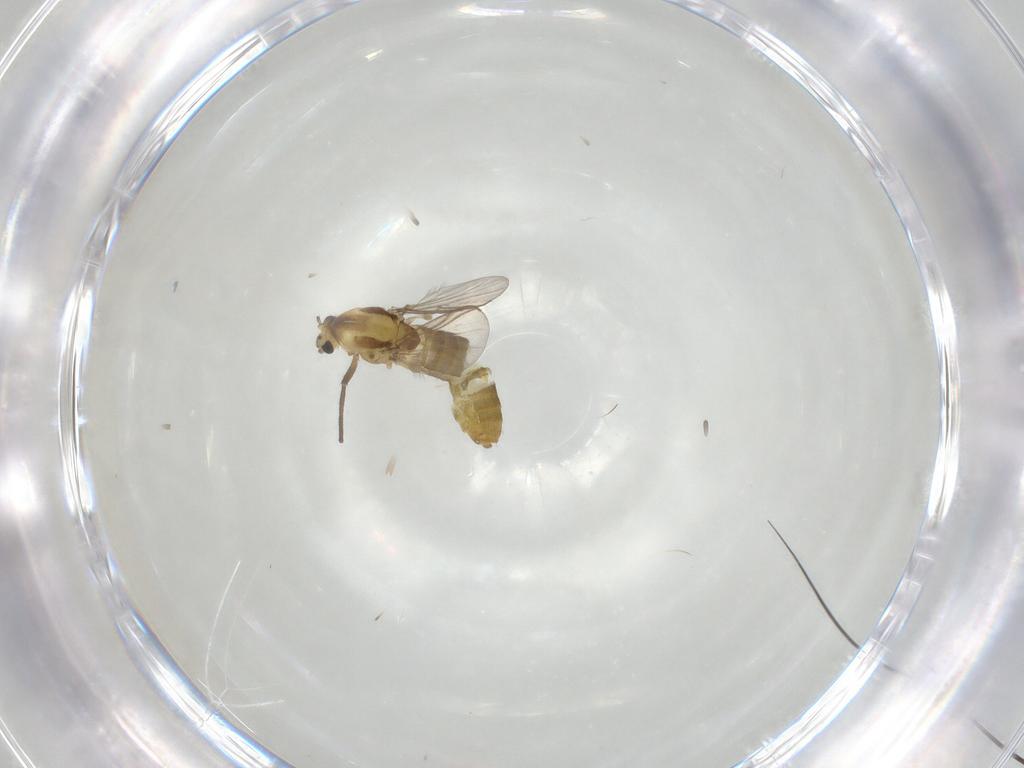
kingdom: Animalia
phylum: Arthropoda
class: Insecta
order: Diptera
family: Chironomidae
